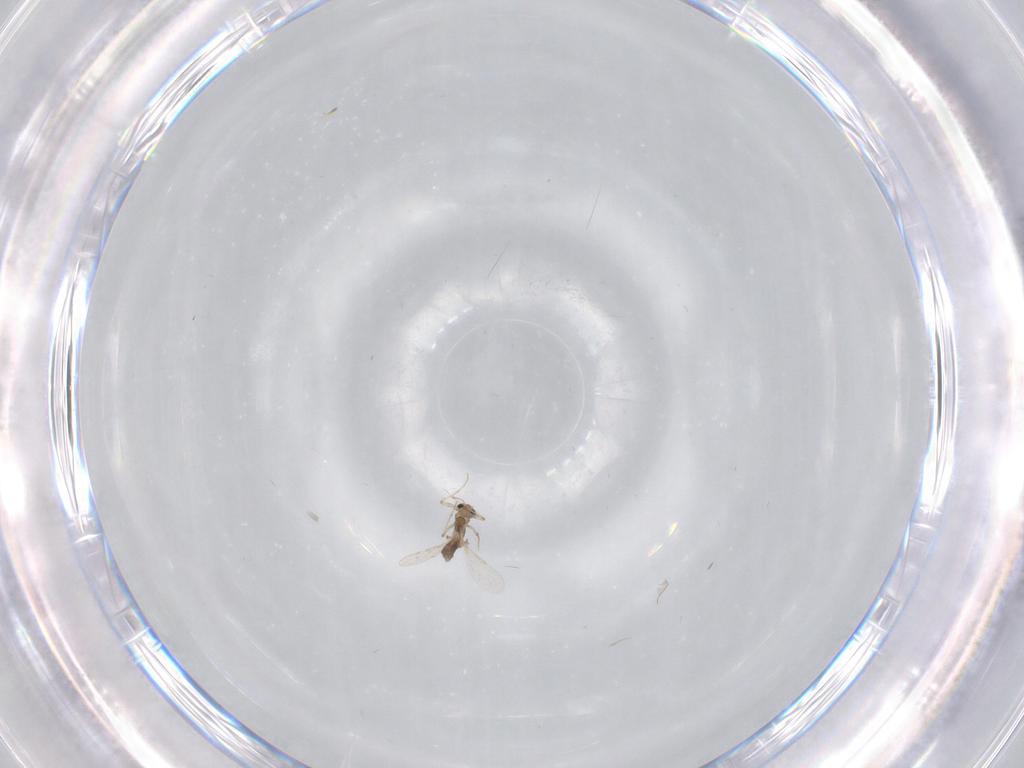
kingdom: Animalia
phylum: Arthropoda
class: Insecta
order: Diptera
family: Chironomidae
